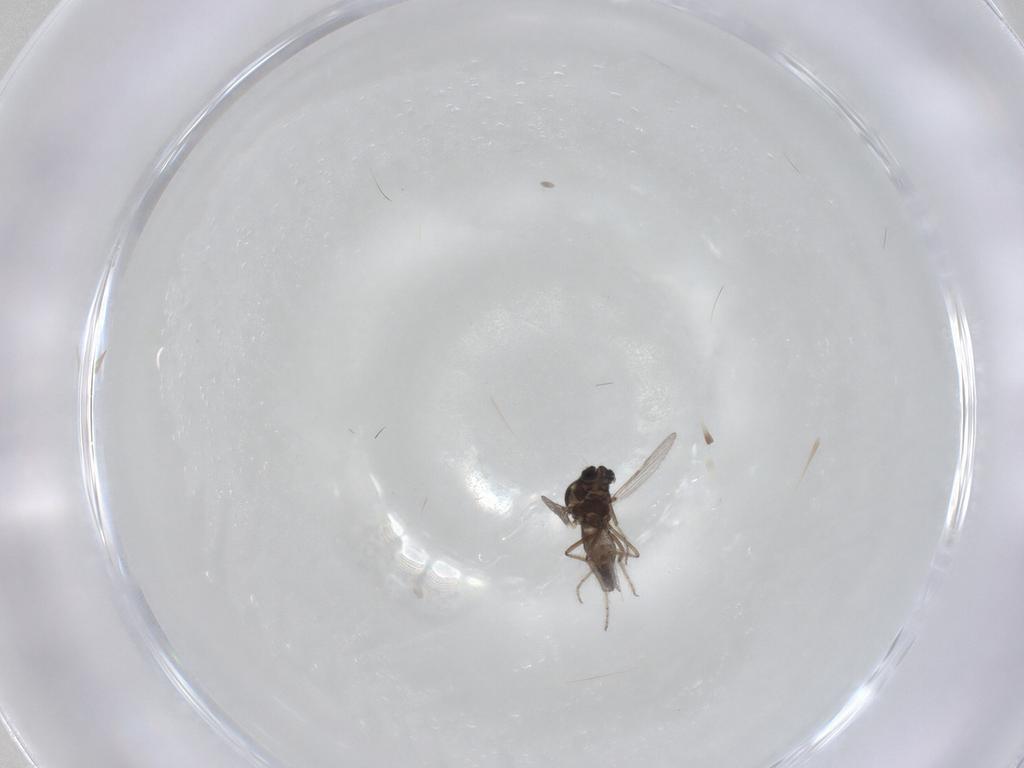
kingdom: Animalia
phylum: Arthropoda
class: Insecta
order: Diptera
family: Ceratopogonidae
